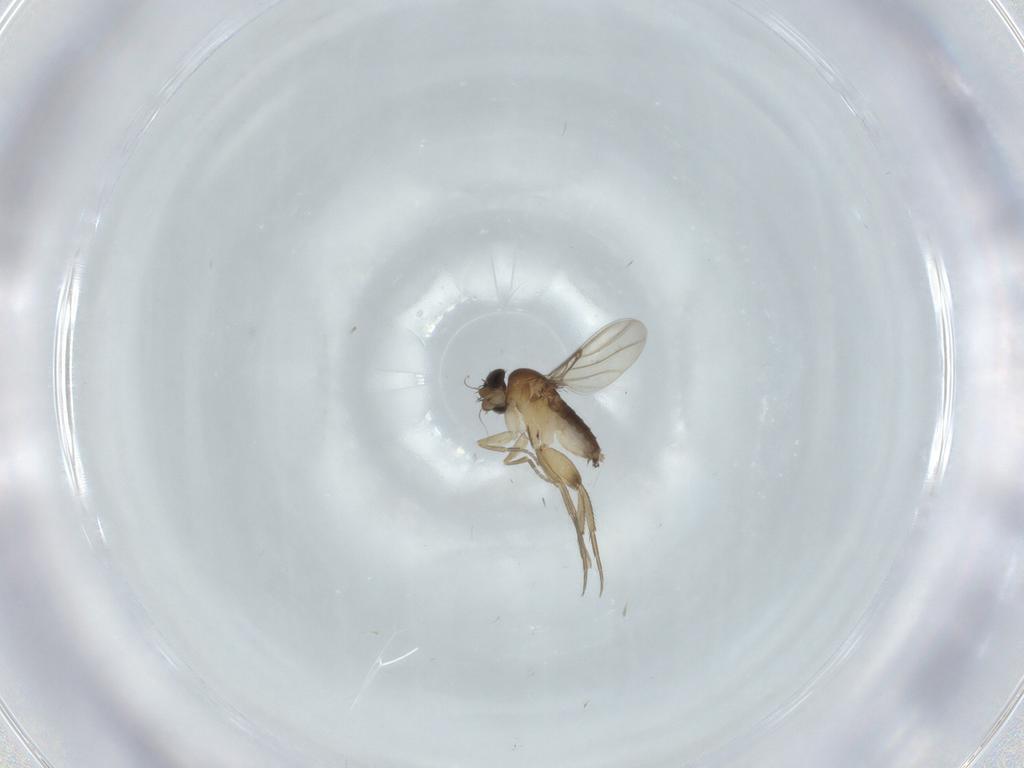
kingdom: Animalia
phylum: Arthropoda
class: Insecta
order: Diptera
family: Phoridae
